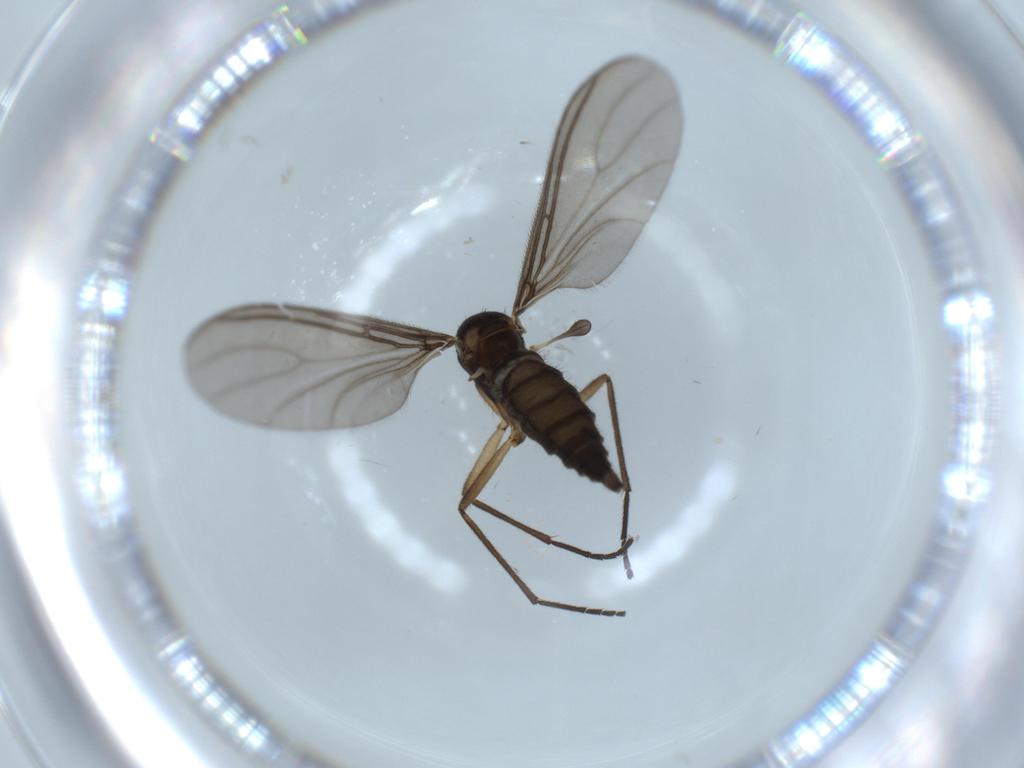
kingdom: Animalia
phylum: Arthropoda
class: Insecta
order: Diptera
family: Sciaridae
